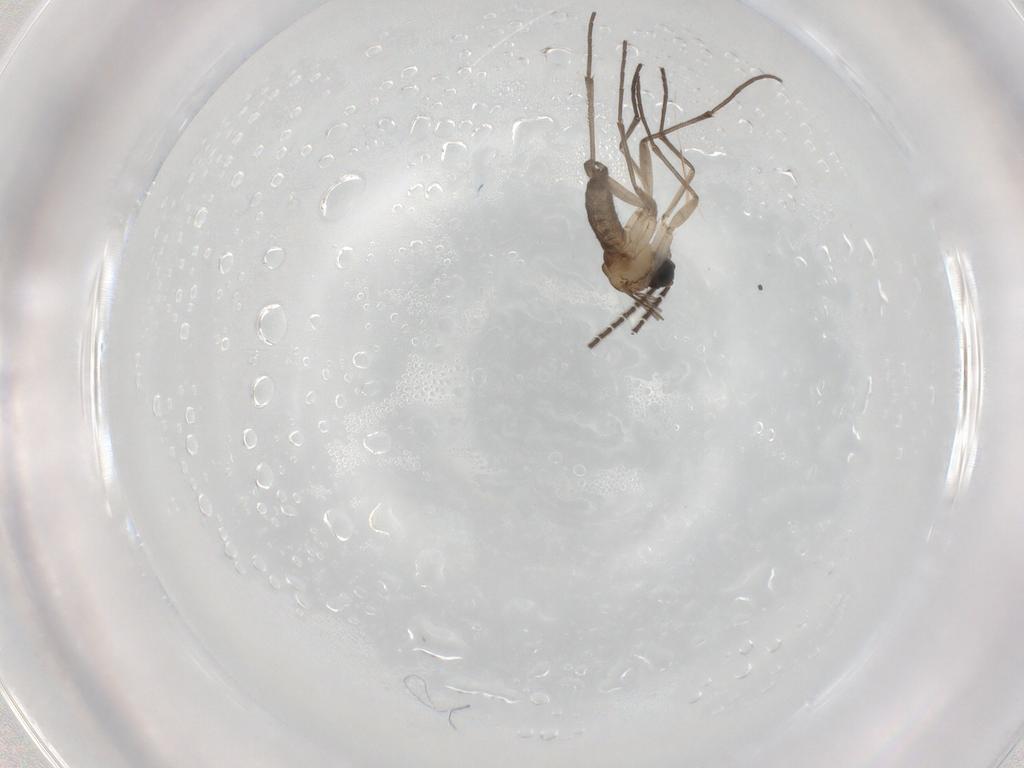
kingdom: Animalia
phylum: Arthropoda
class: Insecta
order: Diptera
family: Sciaridae
